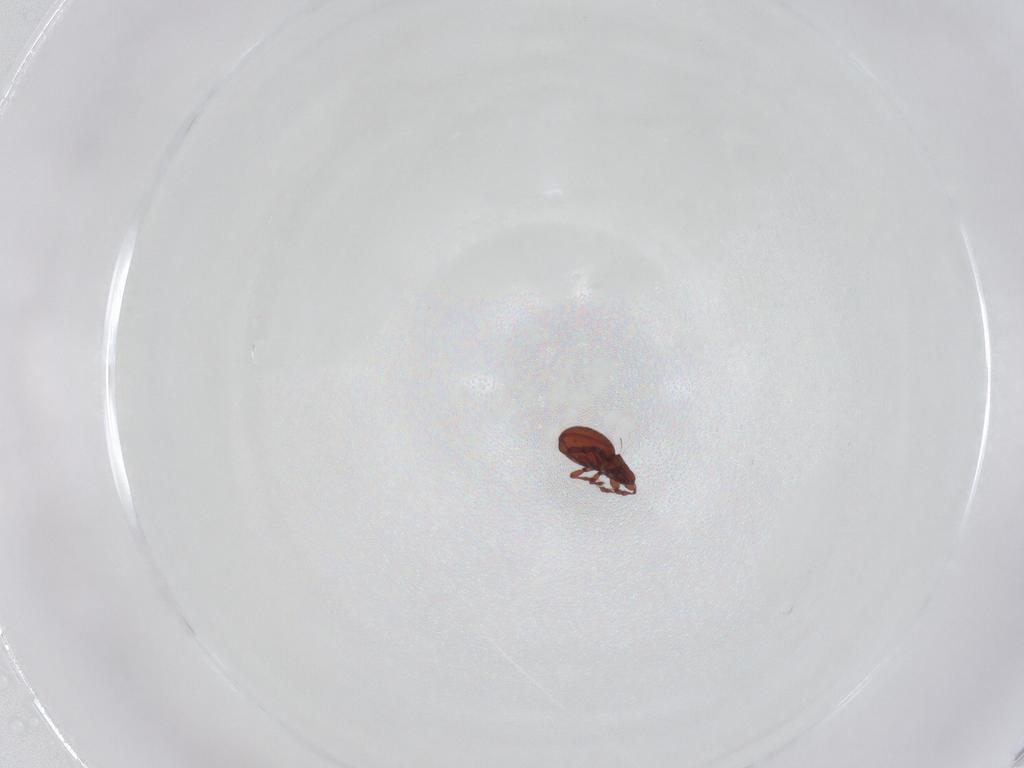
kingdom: Animalia
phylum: Arthropoda
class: Arachnida
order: Sarcoptiformes
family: Eremaeidae
